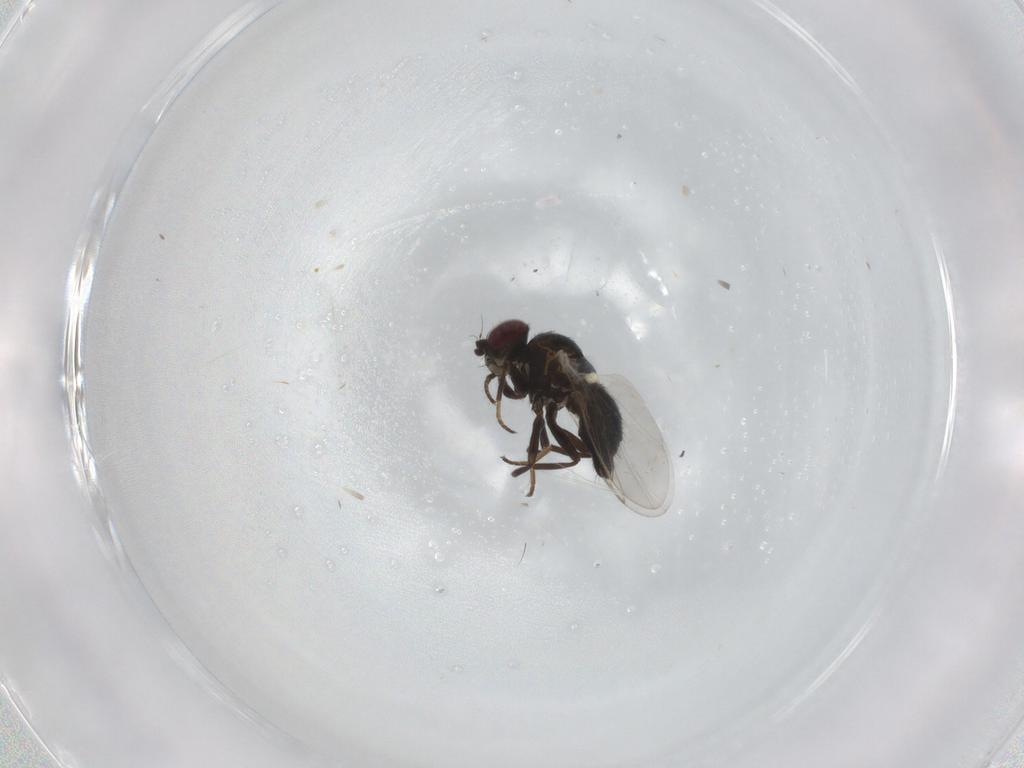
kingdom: Animalia
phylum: Arthropoda
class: Insecta
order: Diptera
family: Agromyzidae
